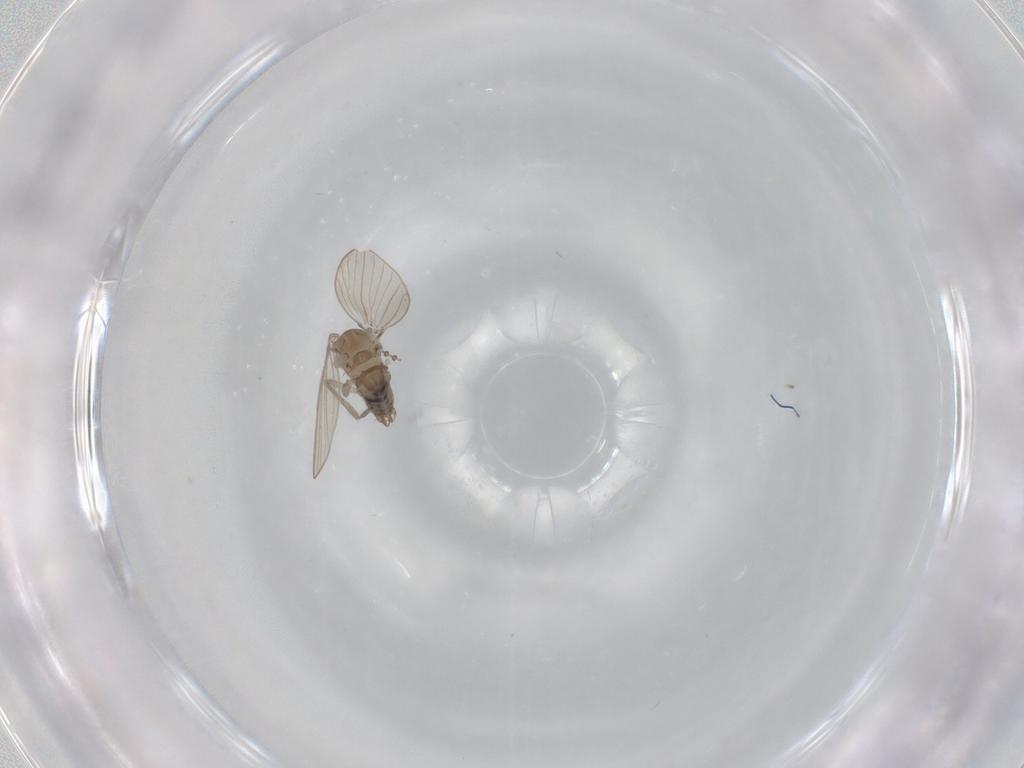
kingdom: Animalia
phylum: Arthropoda
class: Insecta
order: Diptera
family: Psychodidae
